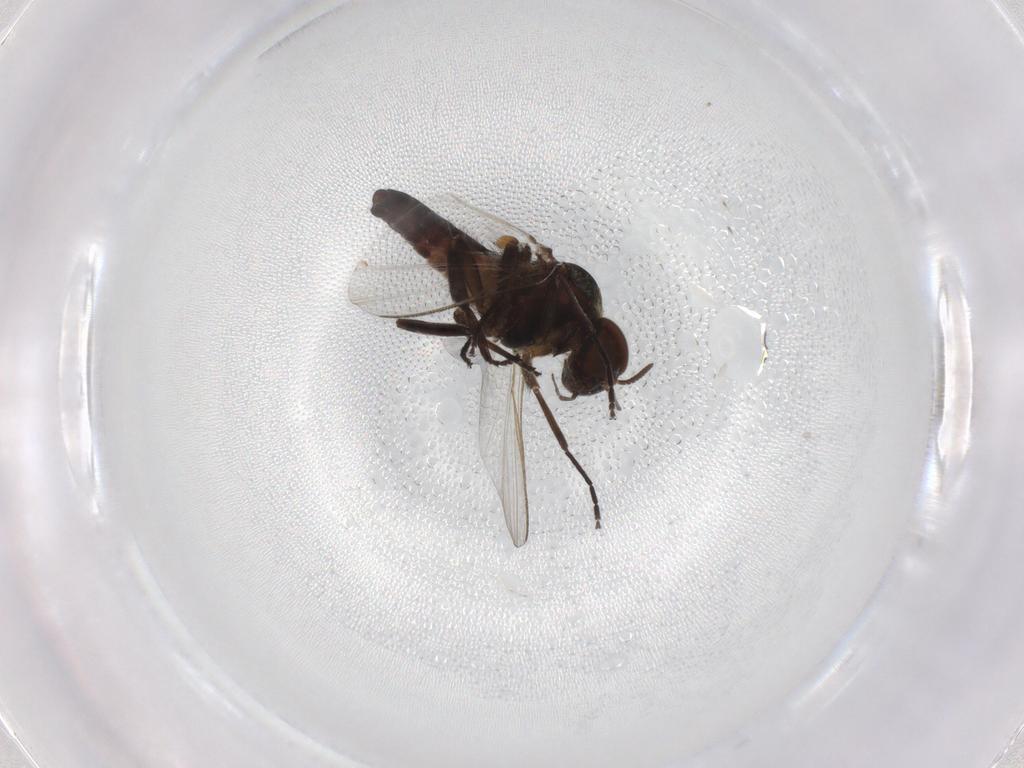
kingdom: Animalia
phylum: Arthropoda
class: Insecta
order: Diptera
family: Simuliidae
